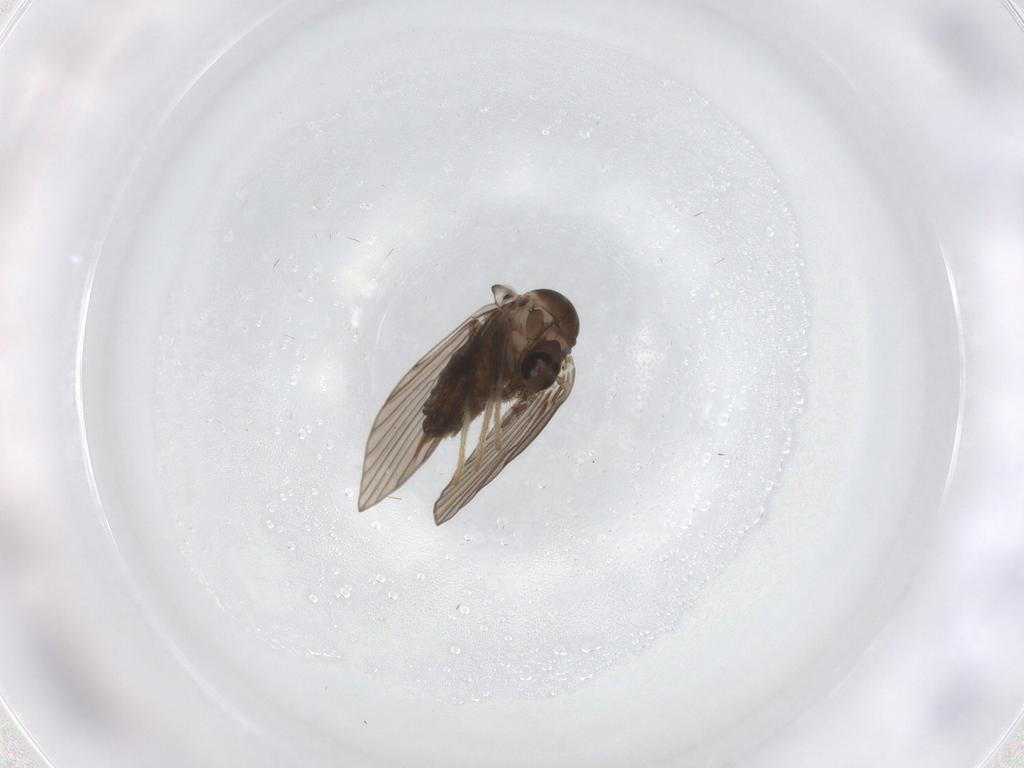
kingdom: Animalia
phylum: Arthropoda
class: Insecta
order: Diptera
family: Psychodidae
